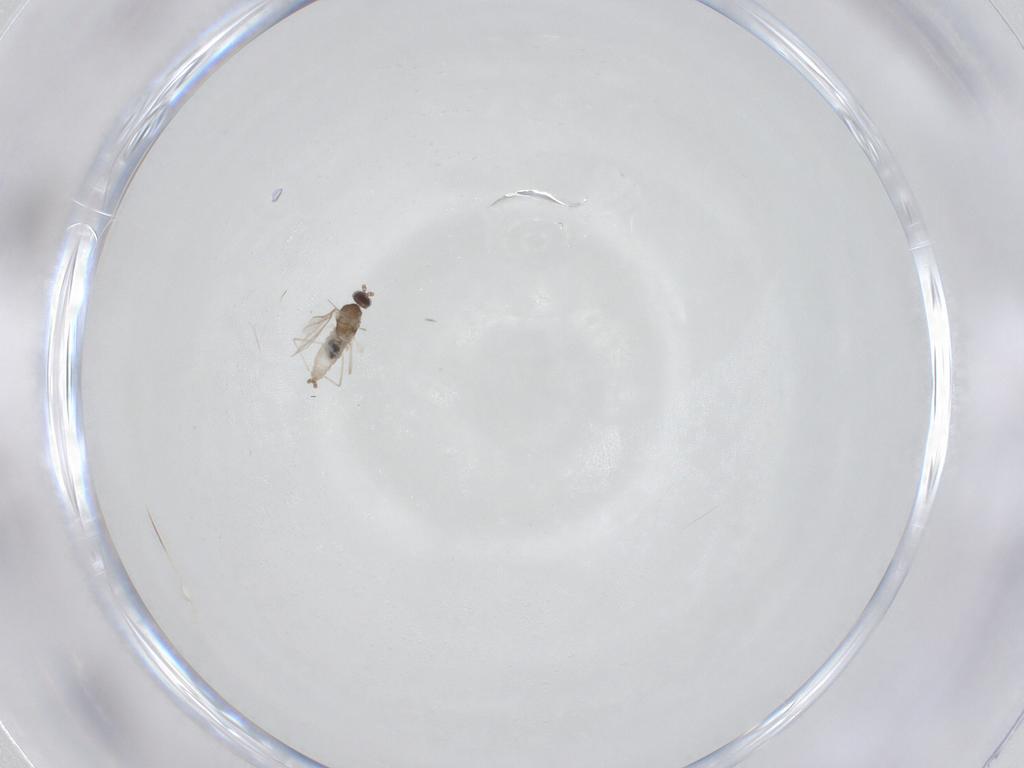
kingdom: Animalia
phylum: Arthropoda
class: Insecta
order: Diptera
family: Cecidomyiidae
